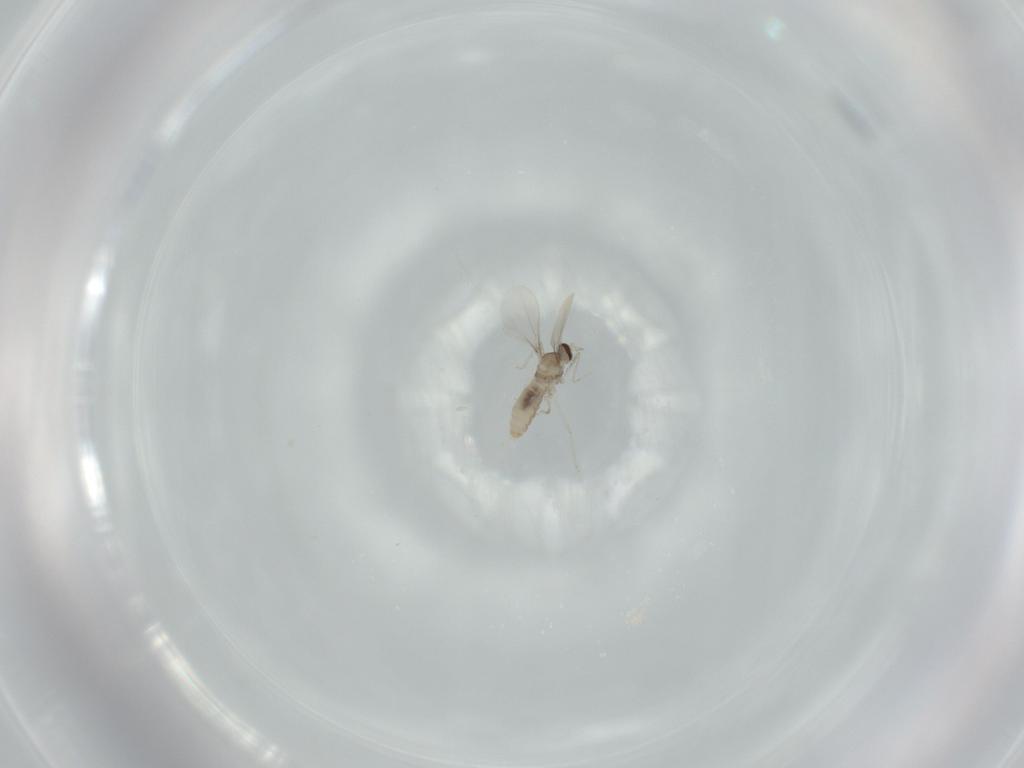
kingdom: Animalia
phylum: Arthropoda
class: Insecta
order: Diptera
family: Cecidomyiidae
